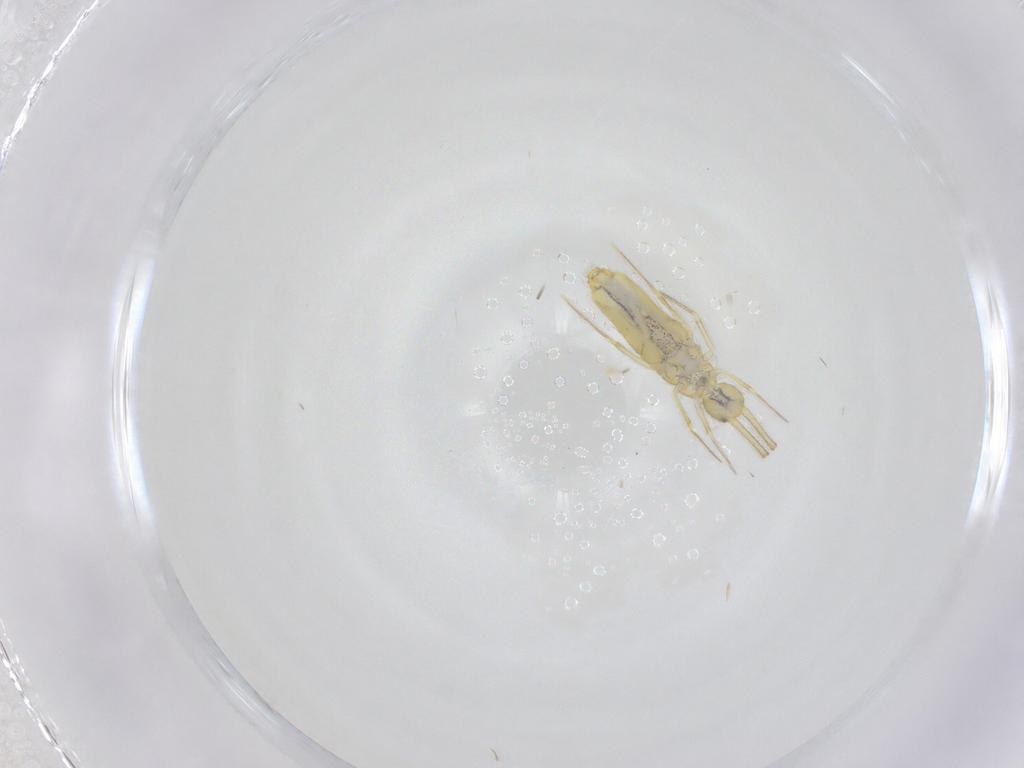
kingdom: Animalia
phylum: Arthropoda
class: Collembola
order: Entomobryomorpha
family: Paronellidae
